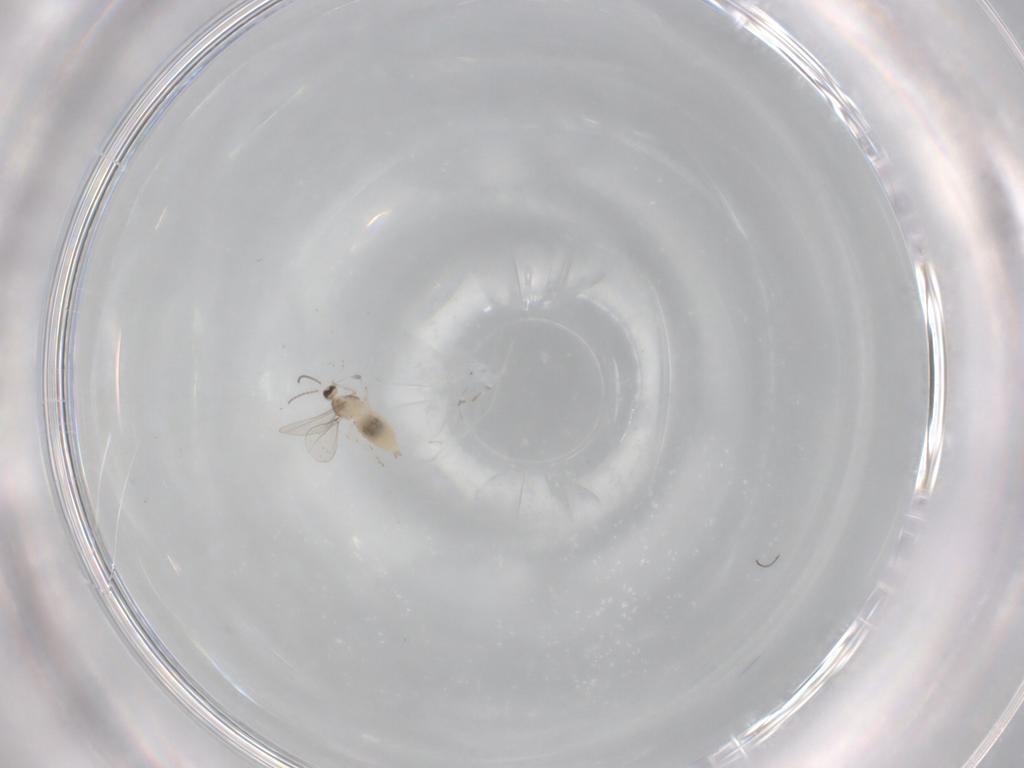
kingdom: Animalia
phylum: Arthropoda
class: Insecta
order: Diptera
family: Cecidomyiidae
